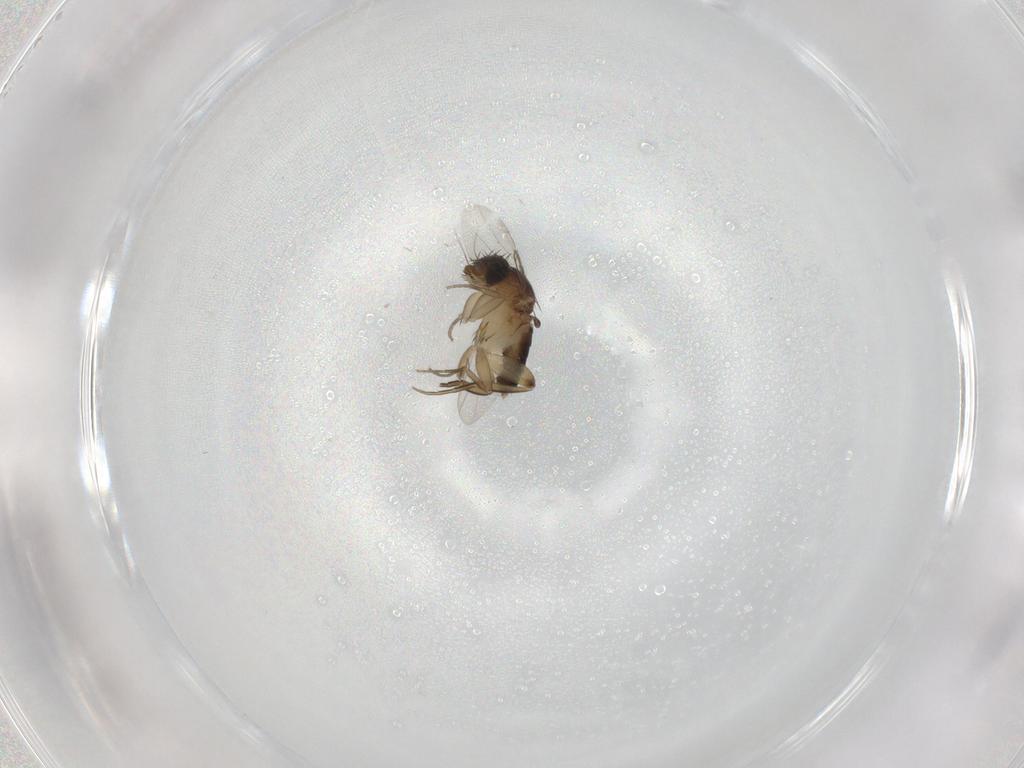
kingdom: Animalia
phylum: Arthropoda
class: Insecta
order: Diptera
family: Phoridae
